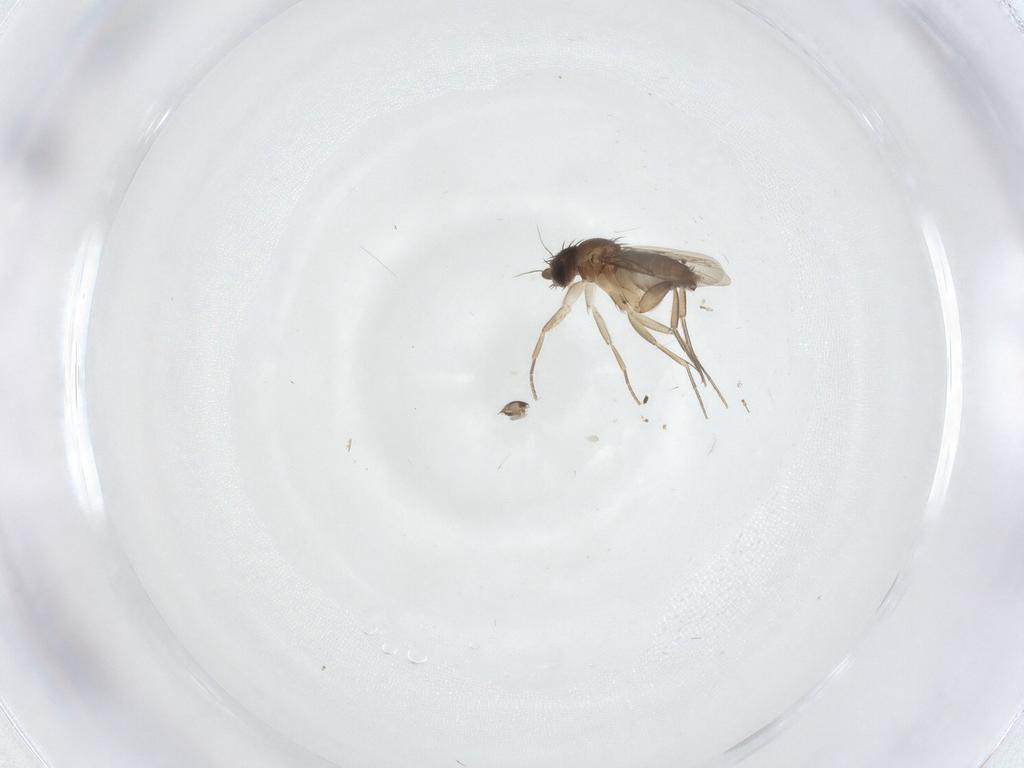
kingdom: Animalia
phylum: Arthropoda
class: Insecta
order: Diptera
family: Phoridae
